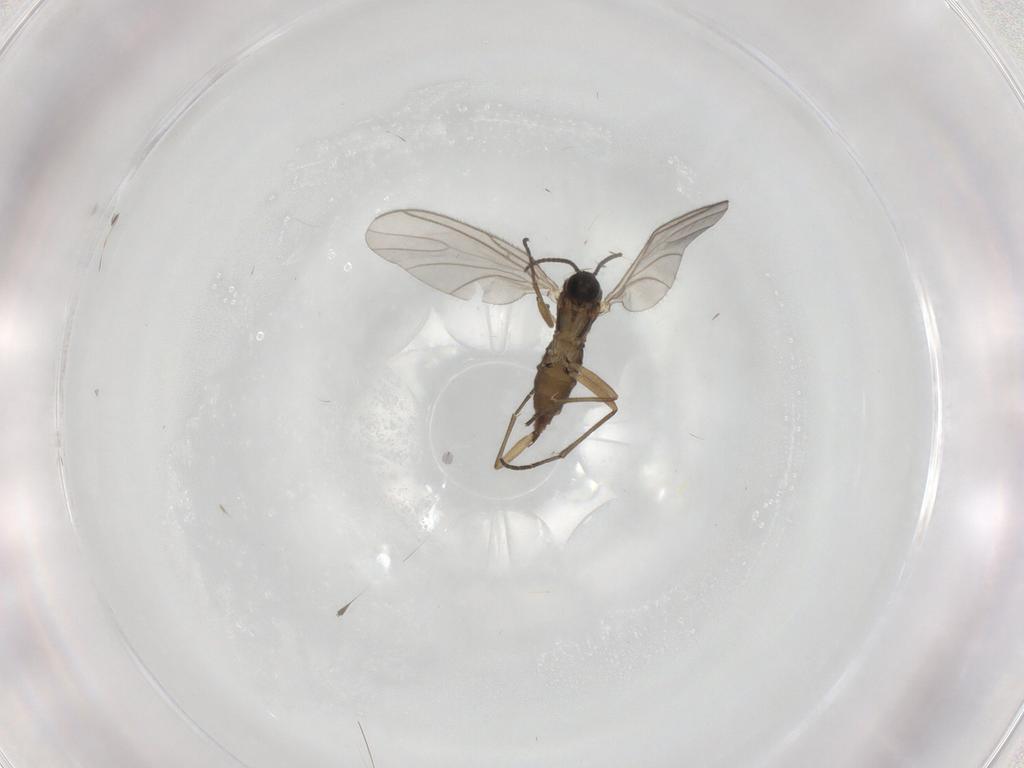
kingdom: Animalia
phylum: Arthropoda
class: Insecta
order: Diptera
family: Sciaridae
